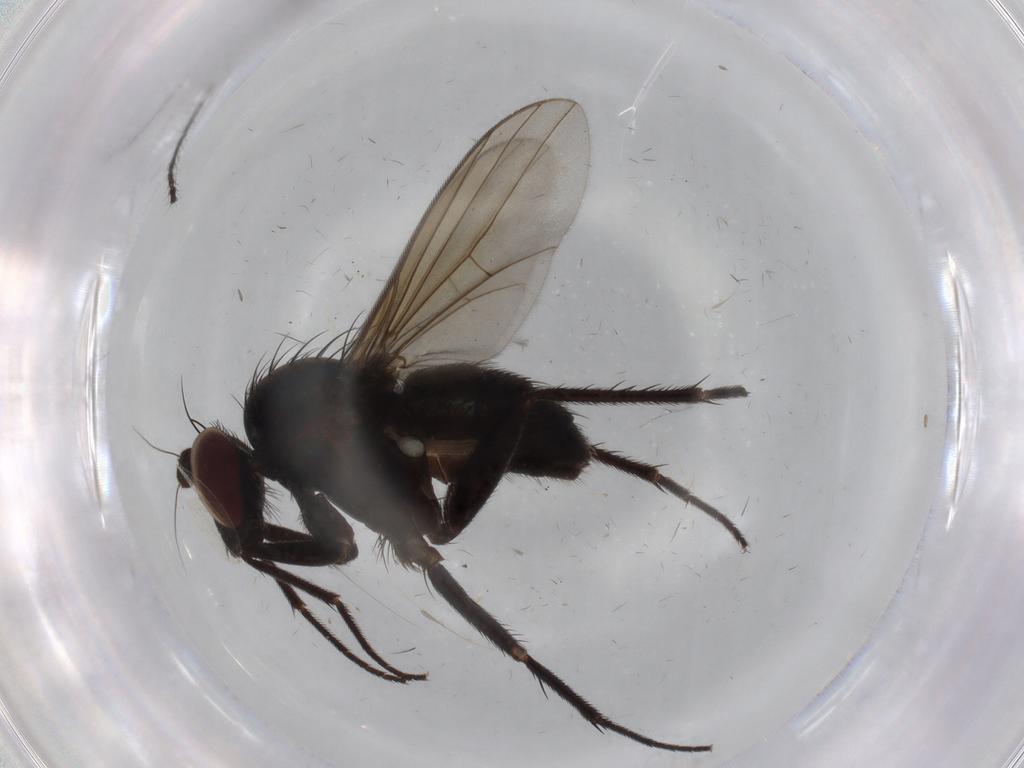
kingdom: Animalia
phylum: Arthropoda
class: Insecta
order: Diptera
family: Dolichopodidae
